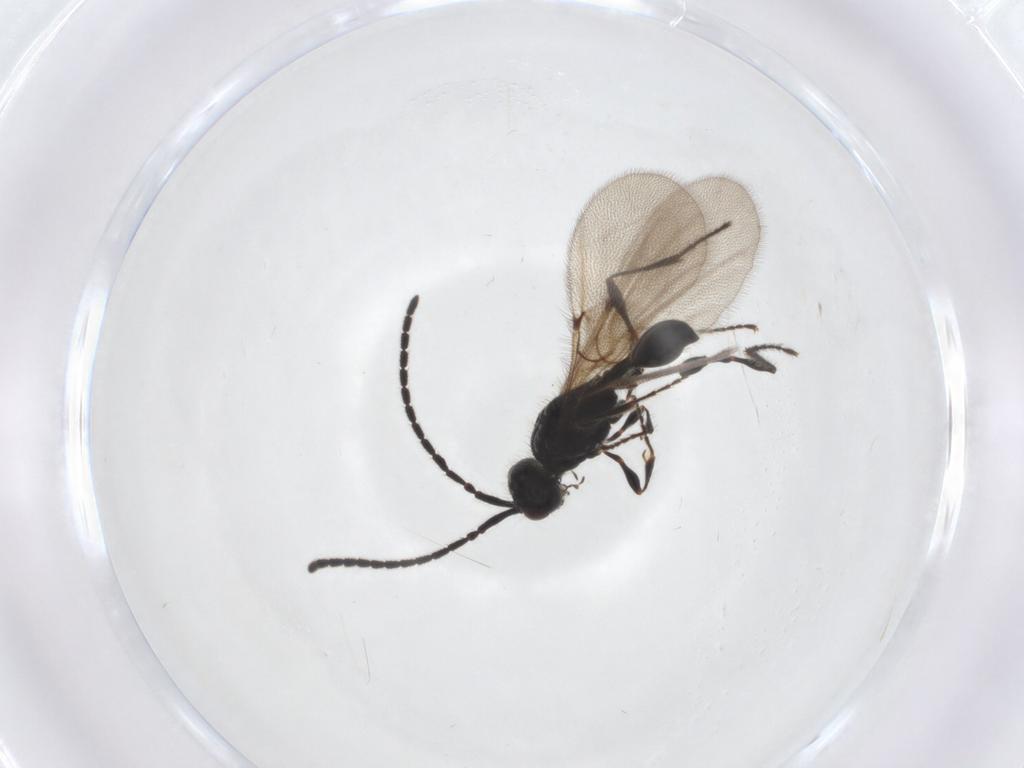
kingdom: Animalia
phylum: Arthropoda
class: Insecta
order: Hymenoptera
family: Diapriidae
